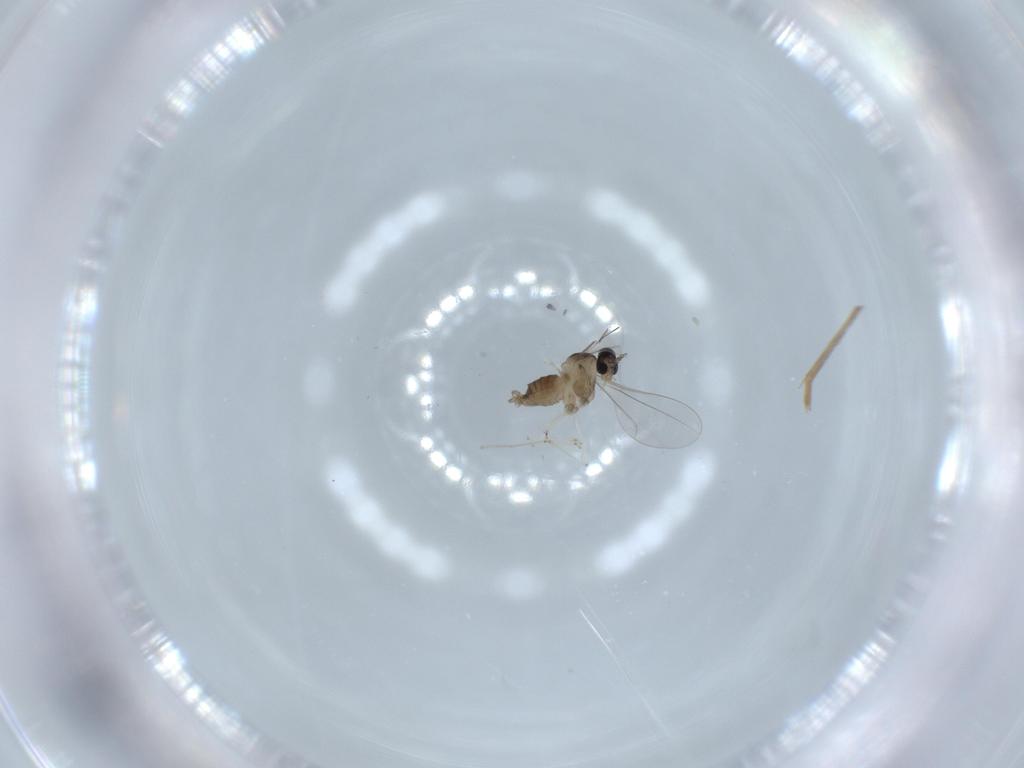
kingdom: Animalia
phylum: Arthropoda
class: Insecta
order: Diptera
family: Cecidomyiidae
